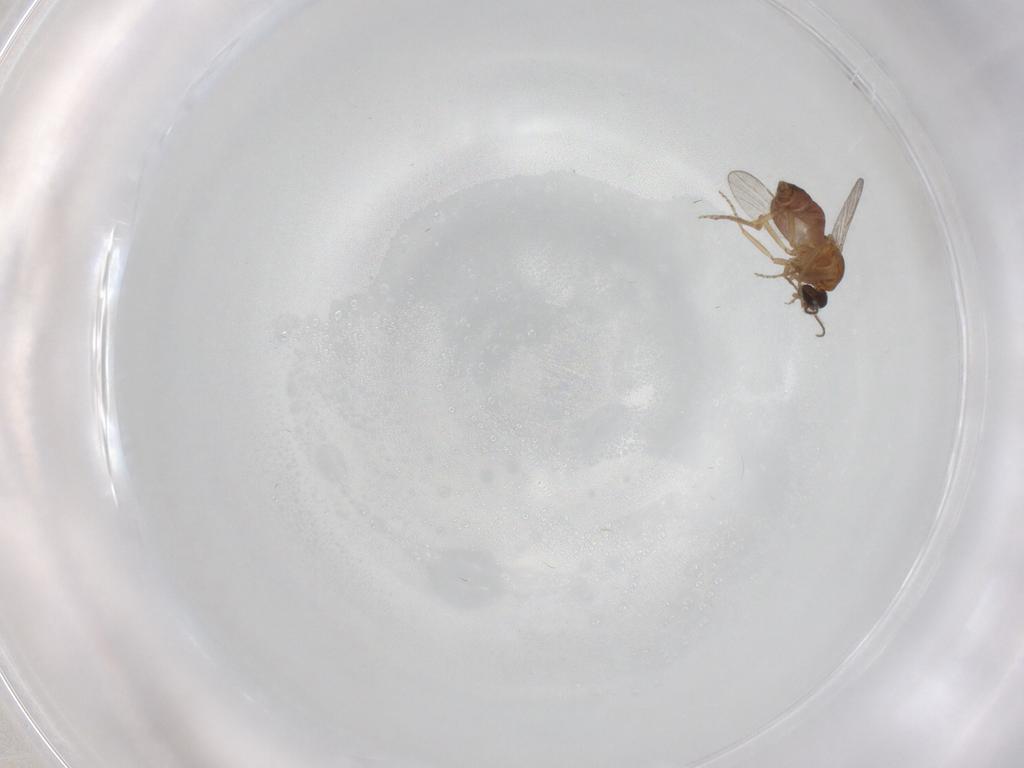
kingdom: Animalia
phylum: Arthropoda
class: Insecta
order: Diptera
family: Ceratopogonidae
